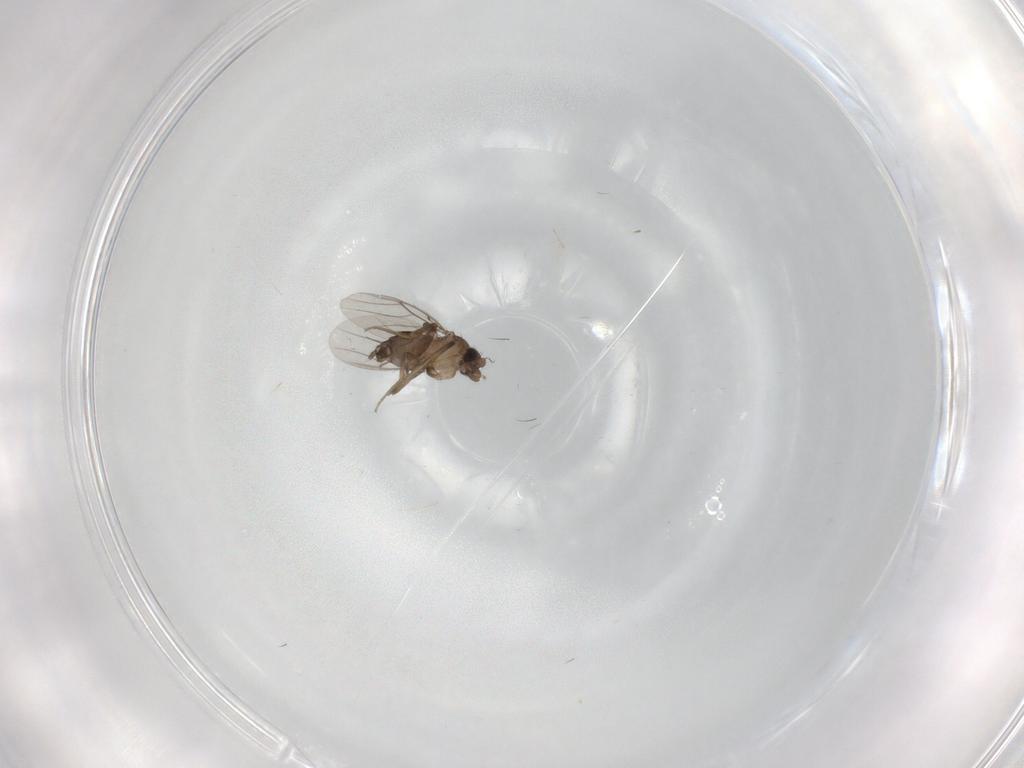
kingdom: Animalia
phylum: Arthropoda
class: Insecta
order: Diptera
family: Phoridae
